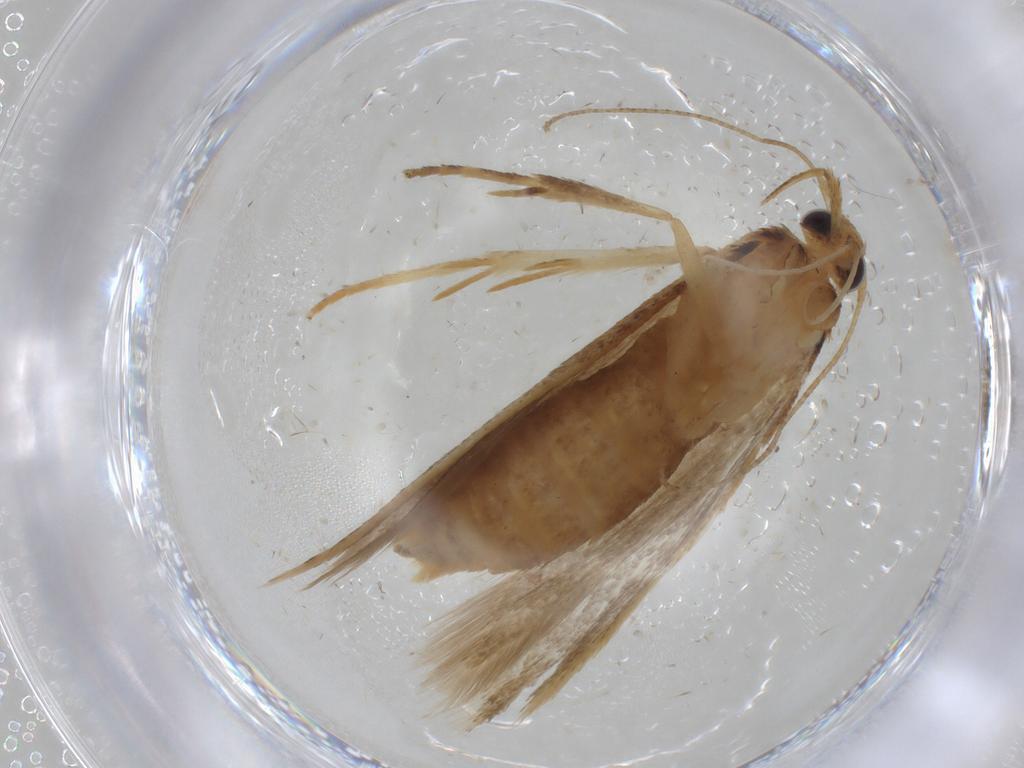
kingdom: Animalia
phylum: Arthropoda
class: Insecta
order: Lepidoptera
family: Gelechiidae
